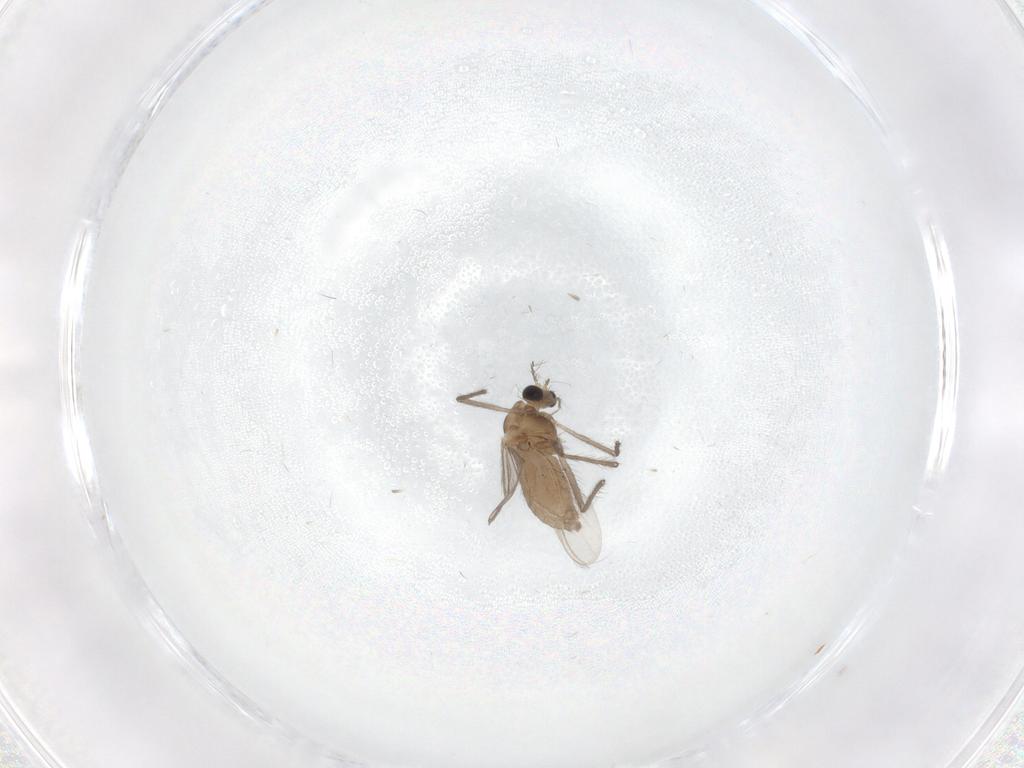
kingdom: Animalia
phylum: Arthropoda
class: Insecta
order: Diptera
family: Chironomidae
